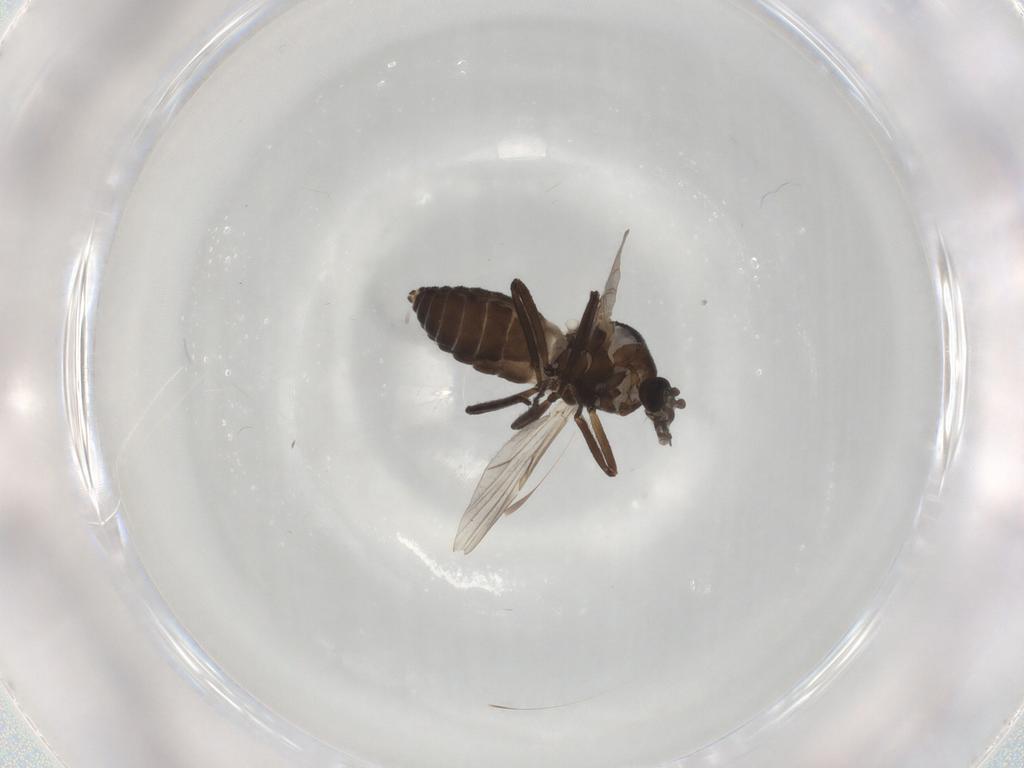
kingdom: Animalia
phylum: Arthropoda
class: Insecta
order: Diptera
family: Ceratopogonidae
